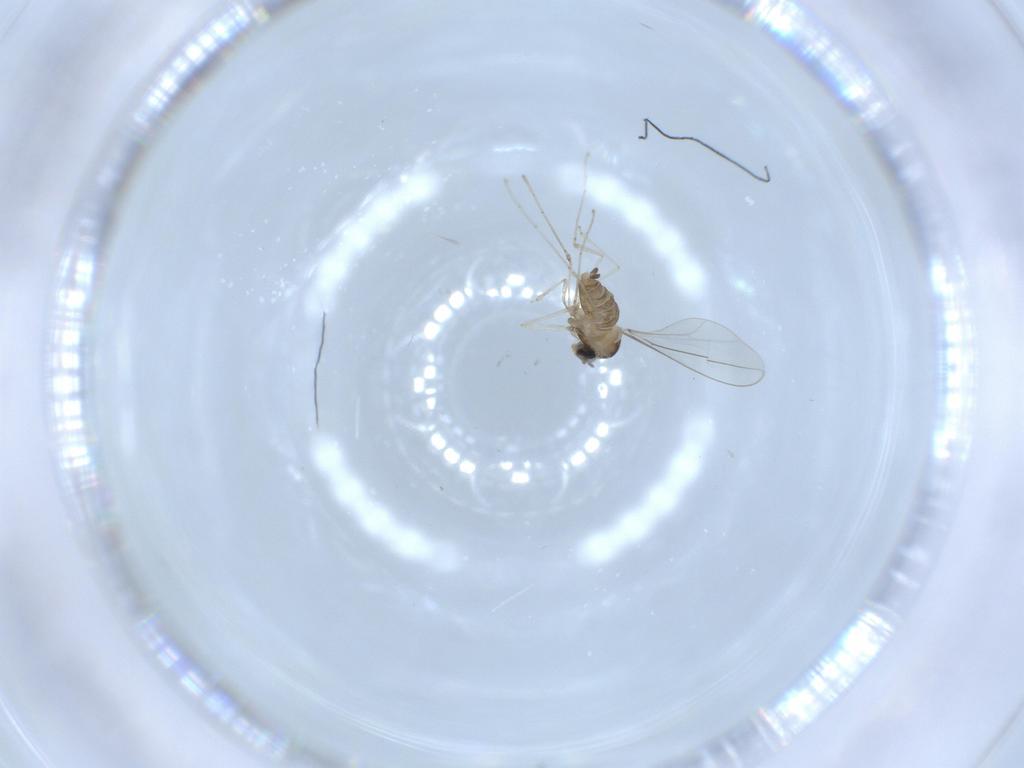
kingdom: Animalia
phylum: Arthropoda
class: Insecta
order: Diptera
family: Cecidomyiidae
